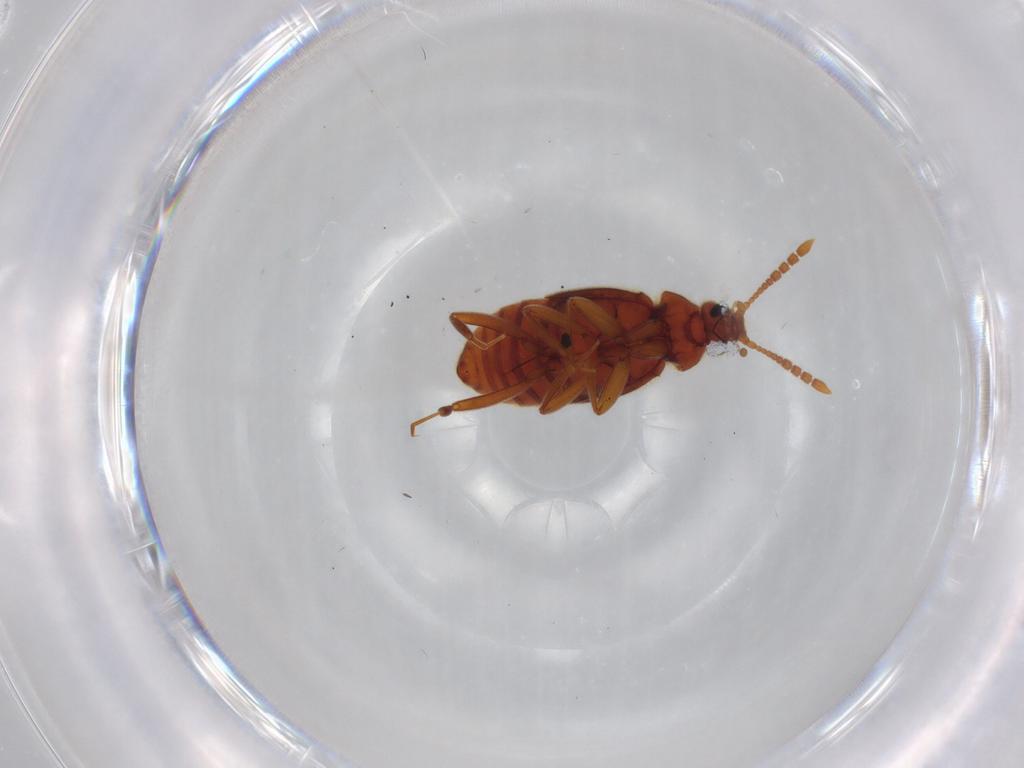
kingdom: Animalia
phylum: Arthropoda
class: Insecta
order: Coleoptera
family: Staphylinidae
